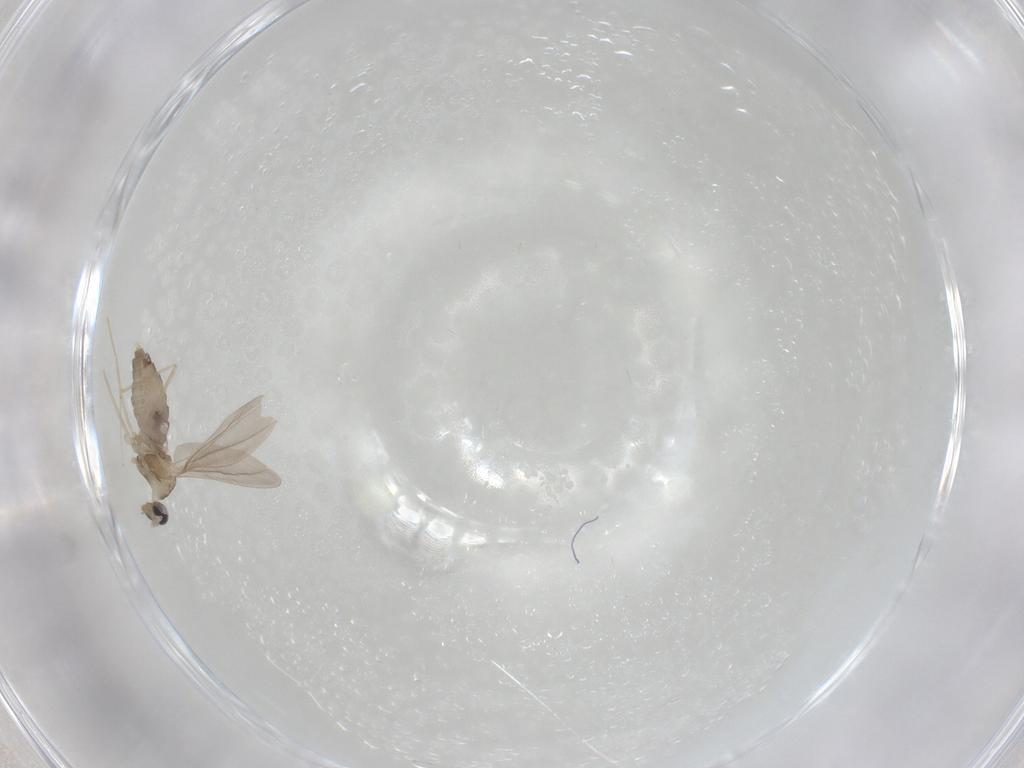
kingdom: Animalia
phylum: Arthropoda
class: Insecta
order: Diptera
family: Cecidomyiidae
